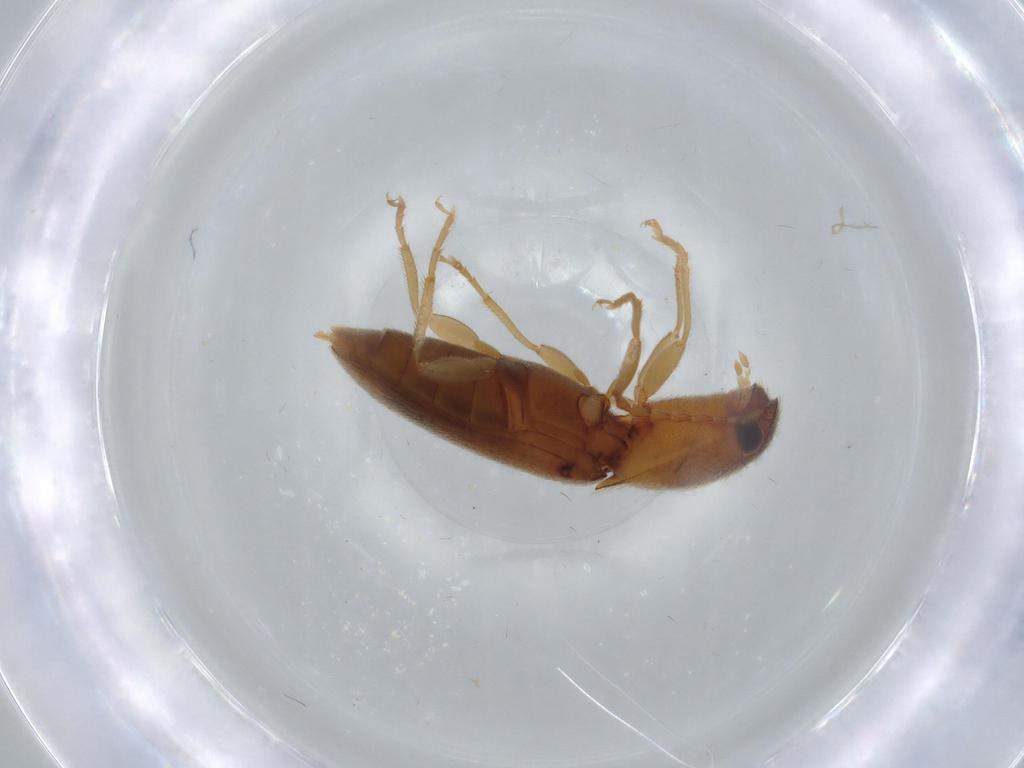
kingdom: Animalia
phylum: Arthropoda
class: Insecta
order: Coleoptera
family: Elateridae
